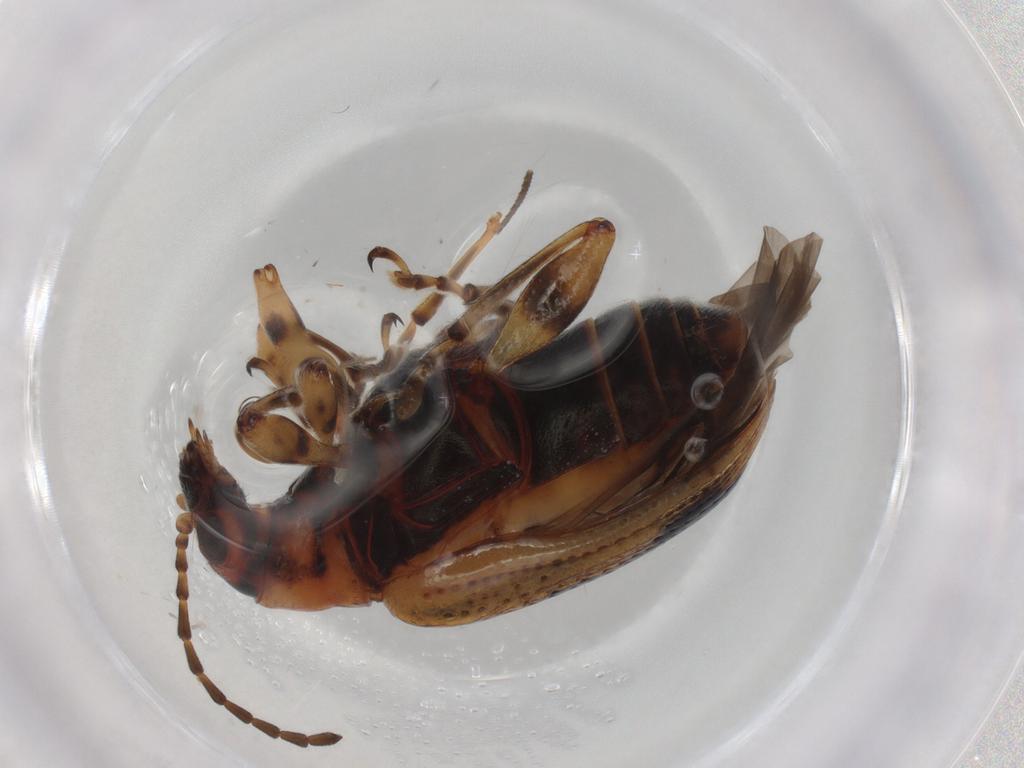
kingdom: Animalia
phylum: Arthropoda
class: Insecta
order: Coleoptera
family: Chrysomelidae
